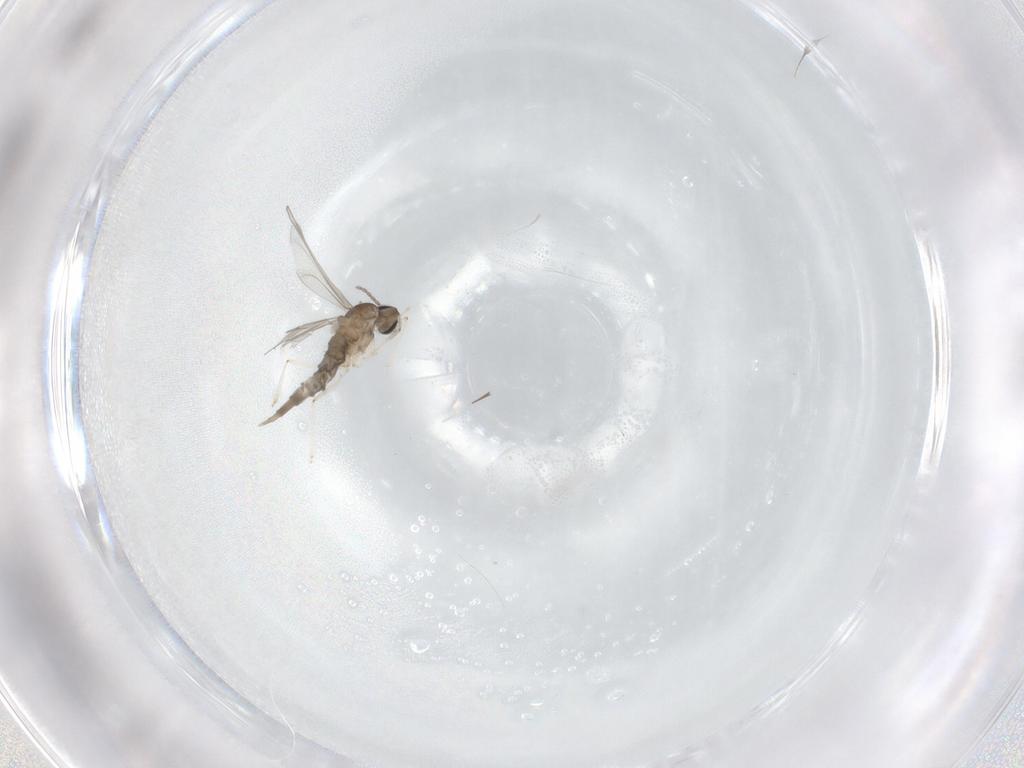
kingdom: Animalia
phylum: Arthropoda
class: Insecta
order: Diptera
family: Cecidomyiidae
